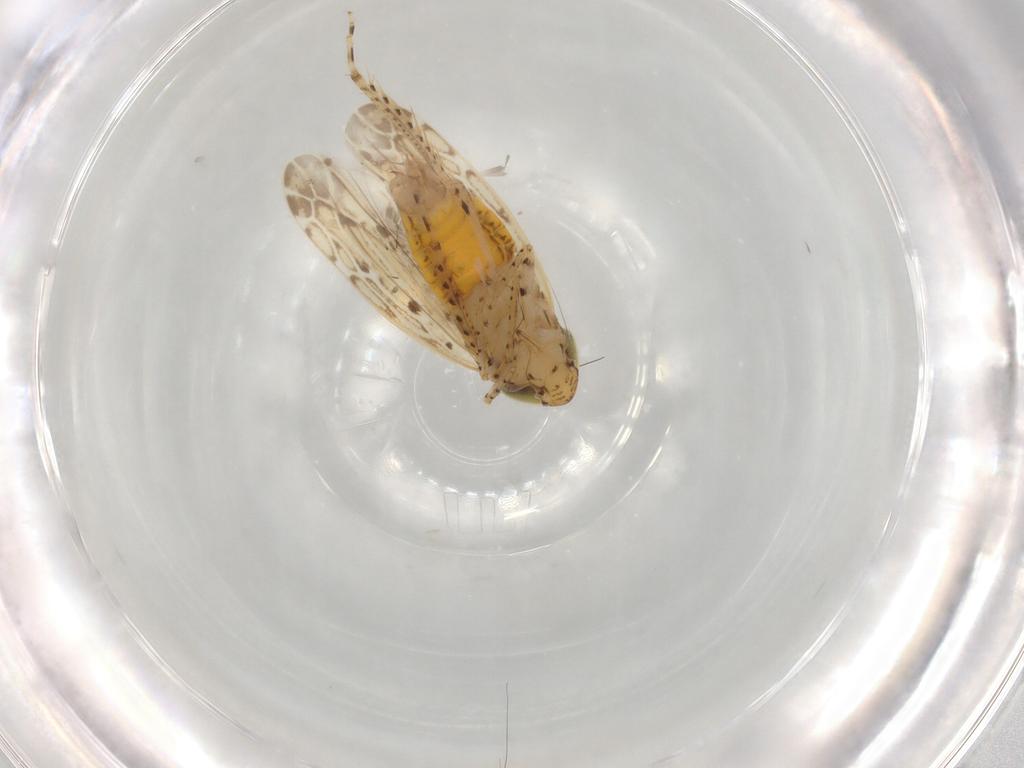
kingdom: Animalia
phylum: Arthropoda
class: Insecta
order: Hemiptera
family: Cicadellidae
